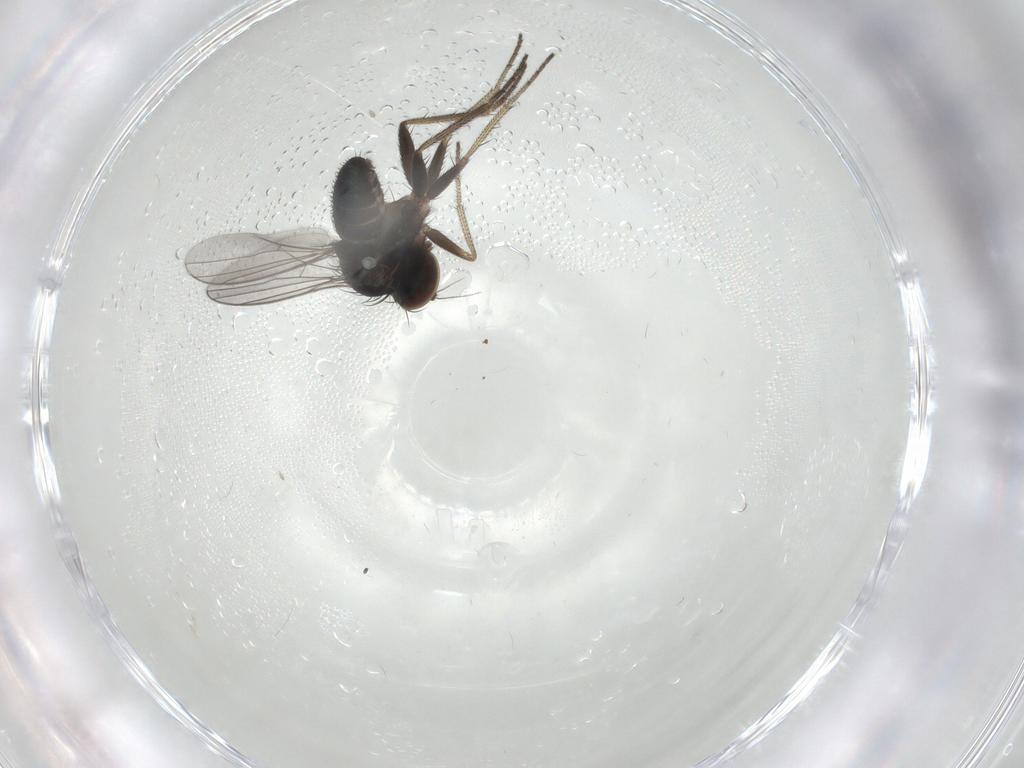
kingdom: Animalia
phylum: Arthropoda
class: Insecta
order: Diptera
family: Dolichopodidae
